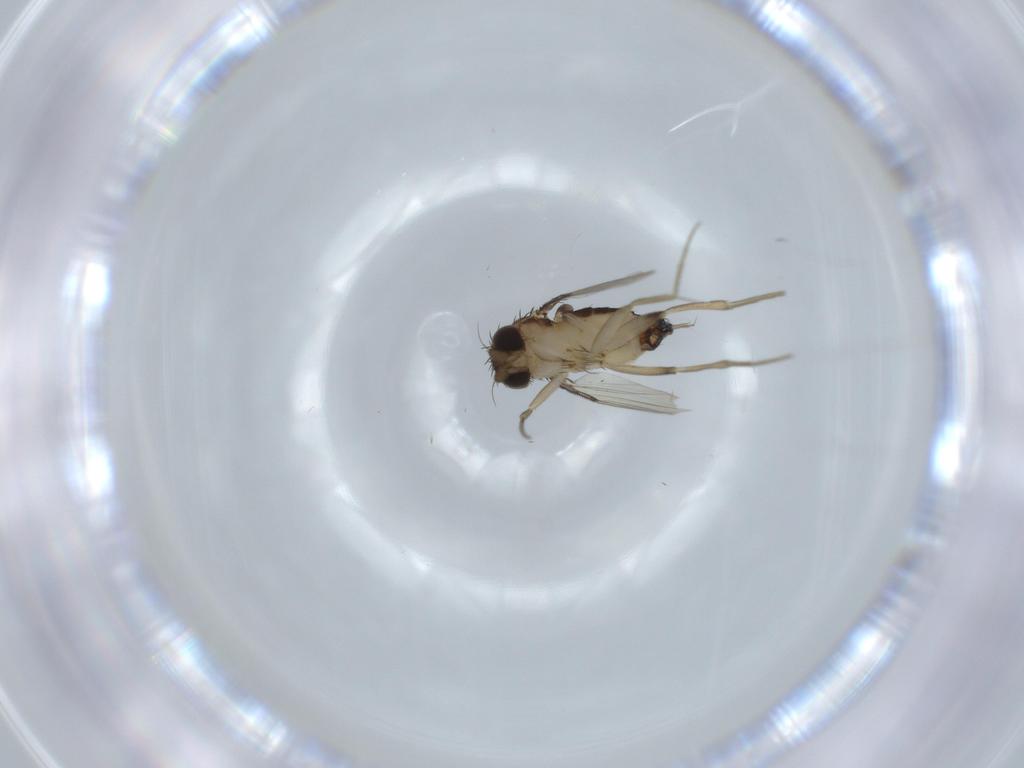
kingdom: Animalia
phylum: Arthropoda
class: Insecta
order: Diptera
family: Phoridae
